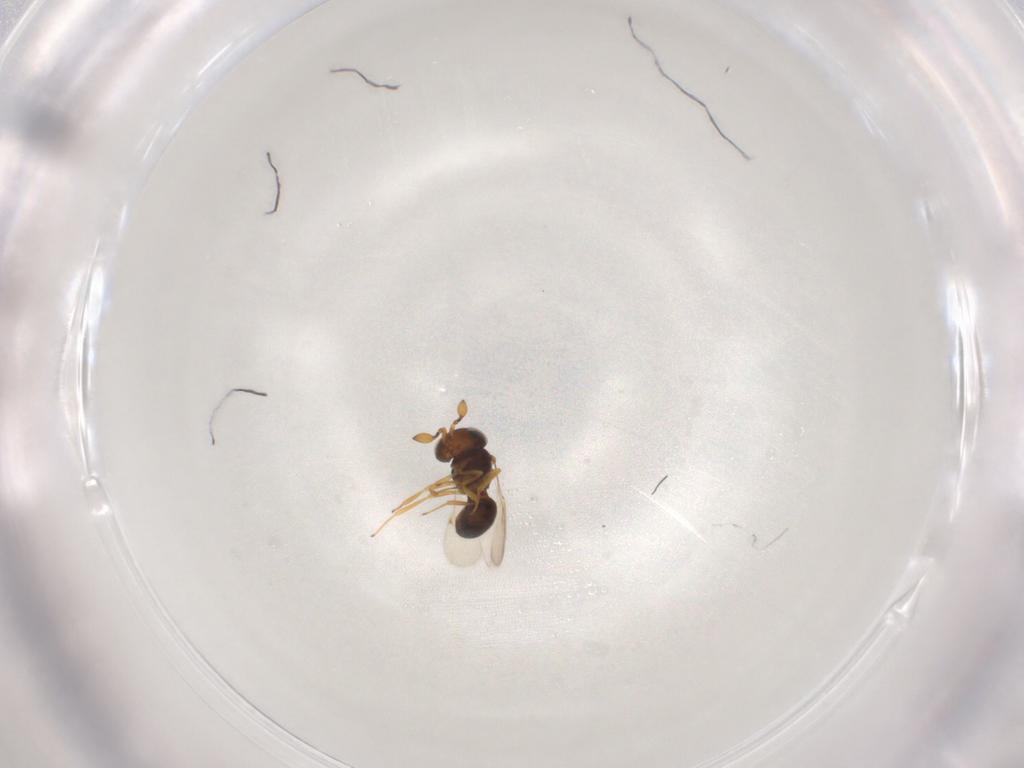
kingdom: Animalia
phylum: Arthropoda
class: Insecta
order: Hymenoptera
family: Scelionidae
